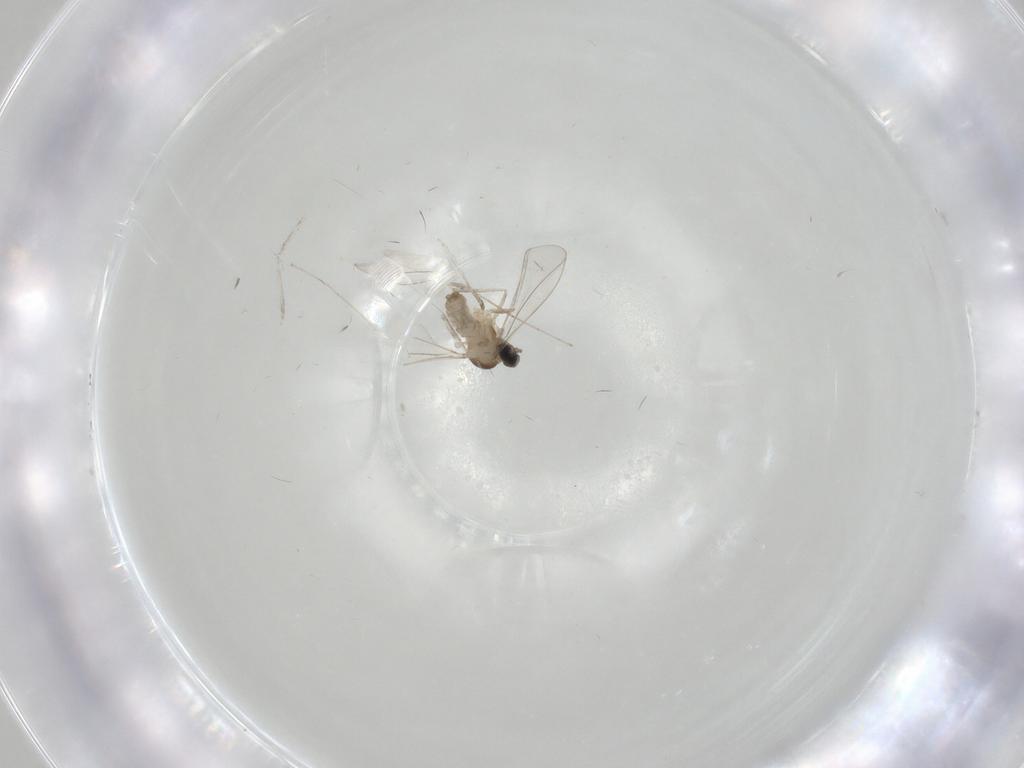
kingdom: Animalia
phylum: Arthropoda
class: Insecta
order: Diptera
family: Cecidomyiidae
